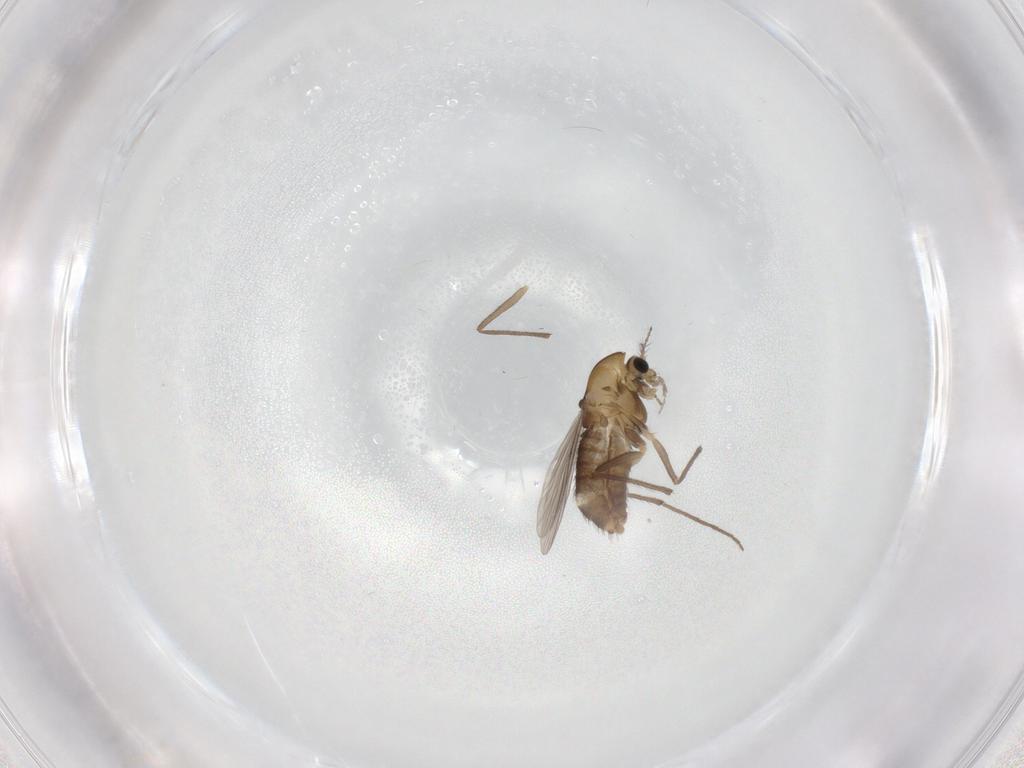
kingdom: Animalia
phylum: Arthropoda
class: Insecta
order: Diptera
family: Chironomidae
